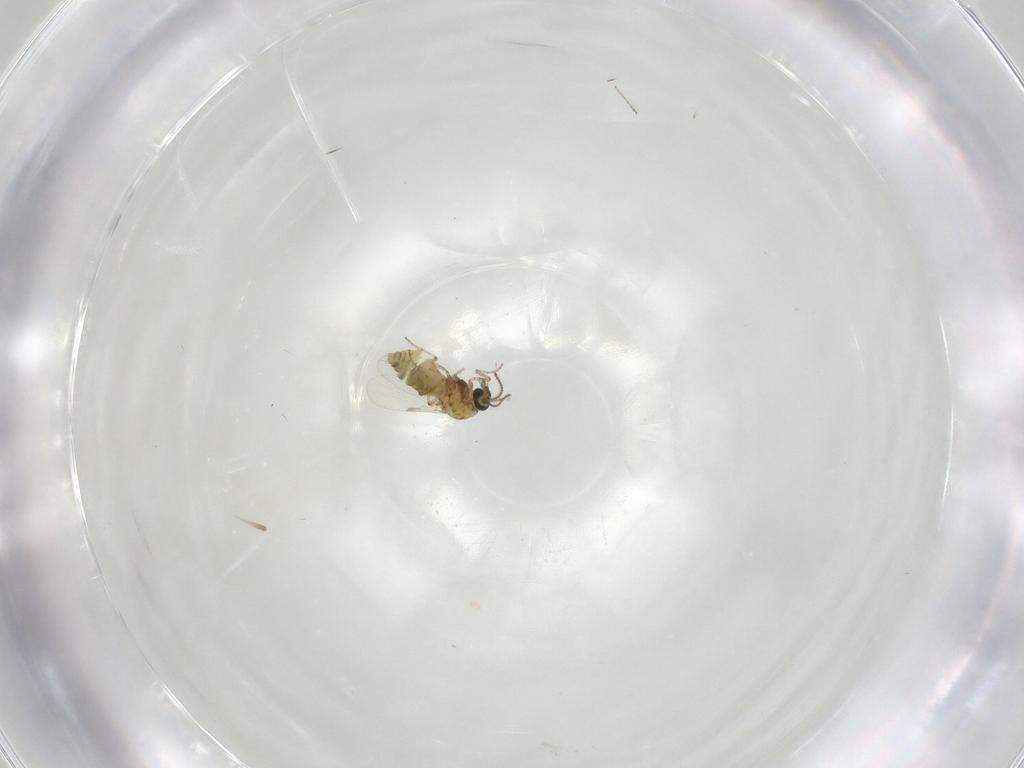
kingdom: Animalia
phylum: Arthropoda
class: Insecta
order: Diptera
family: Ceratopogonidae
